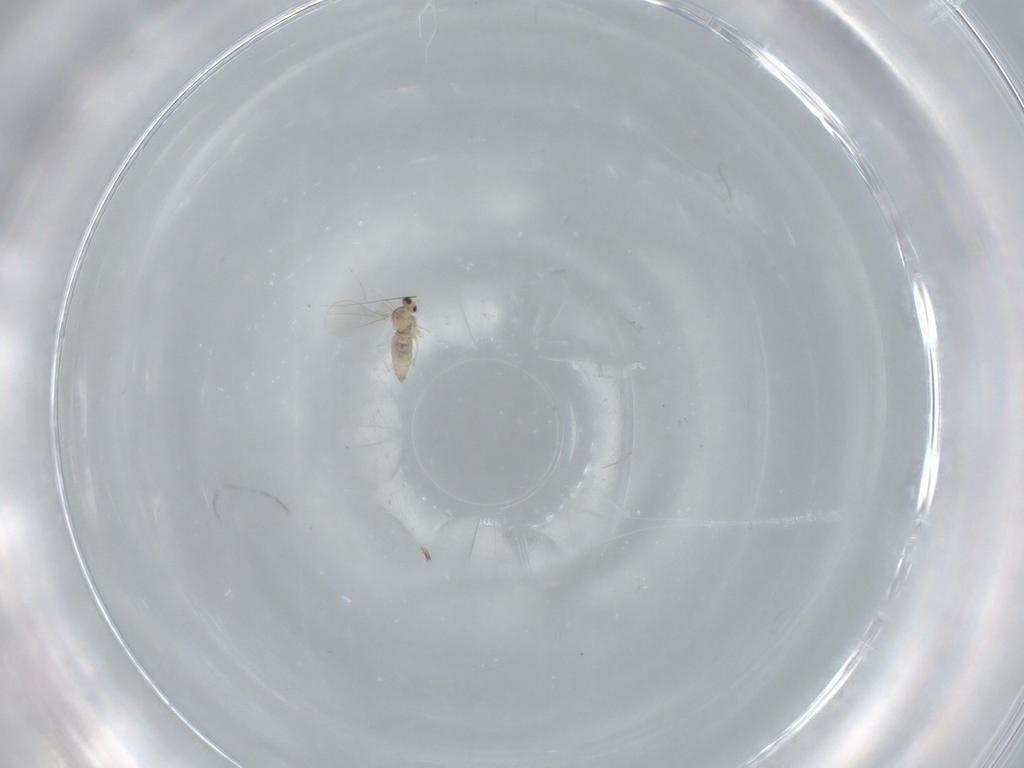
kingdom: Animalia
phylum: Arthropoda
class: Insecta
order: Diptera
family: Cecidomyiidae
